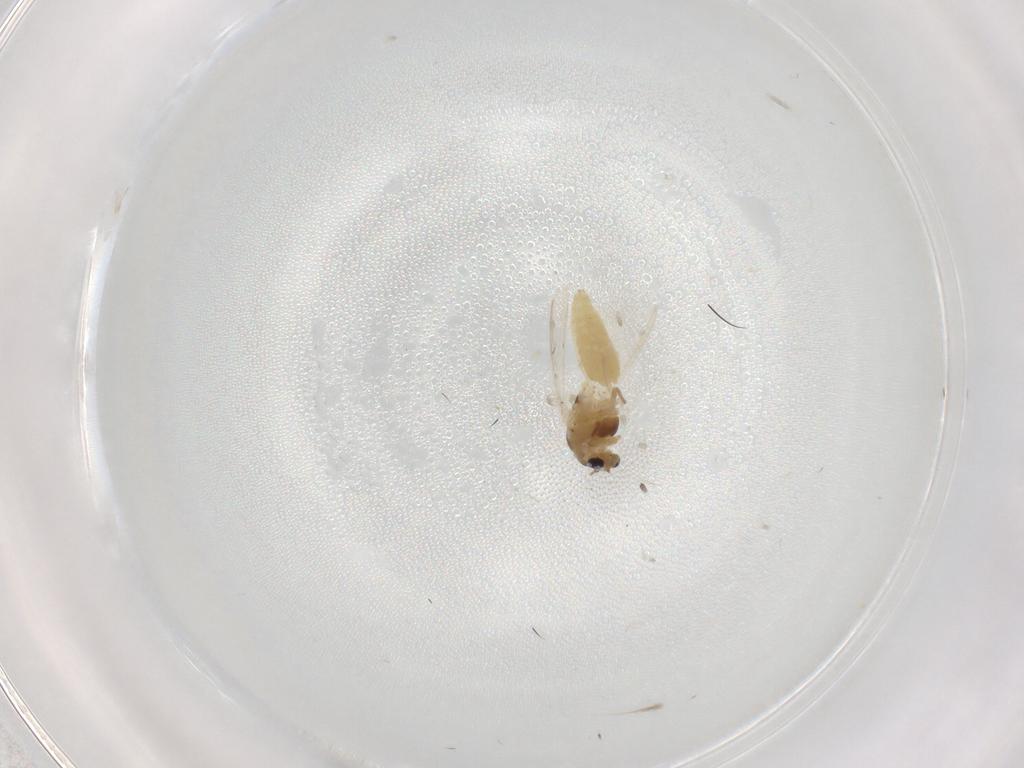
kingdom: Animalia
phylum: Arthropoda
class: Insecta
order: Diptera
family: Chironomidae
